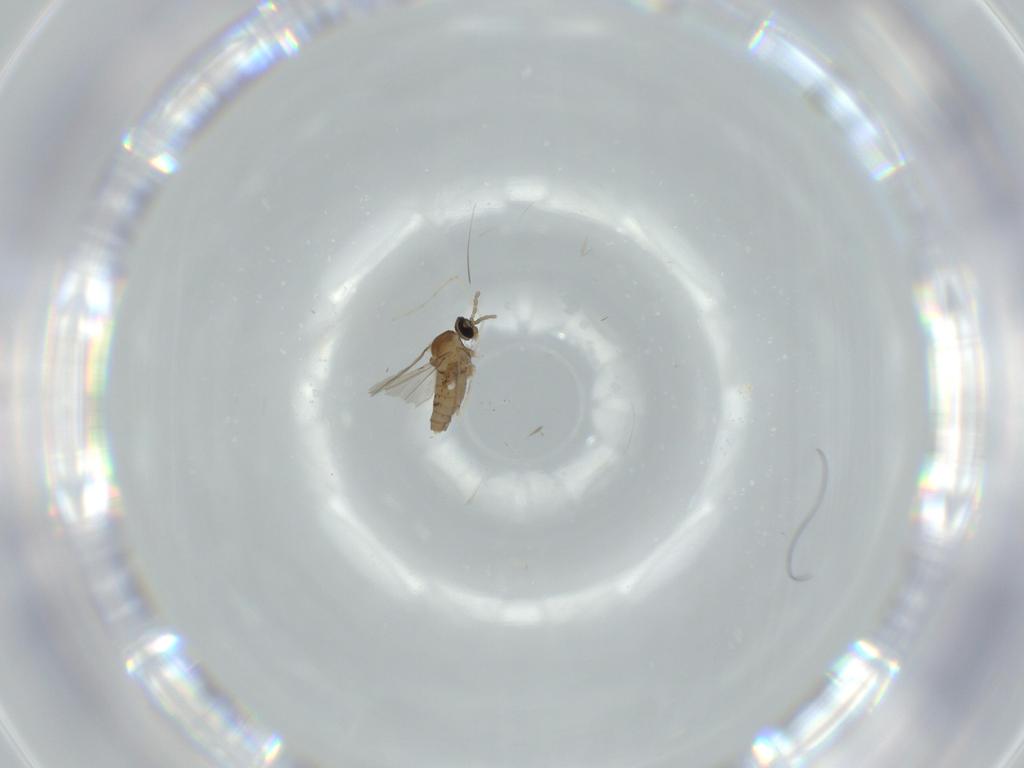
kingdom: Animalia
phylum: Arthropoda
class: Insecta
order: Diptera
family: Cecidomyiidae
